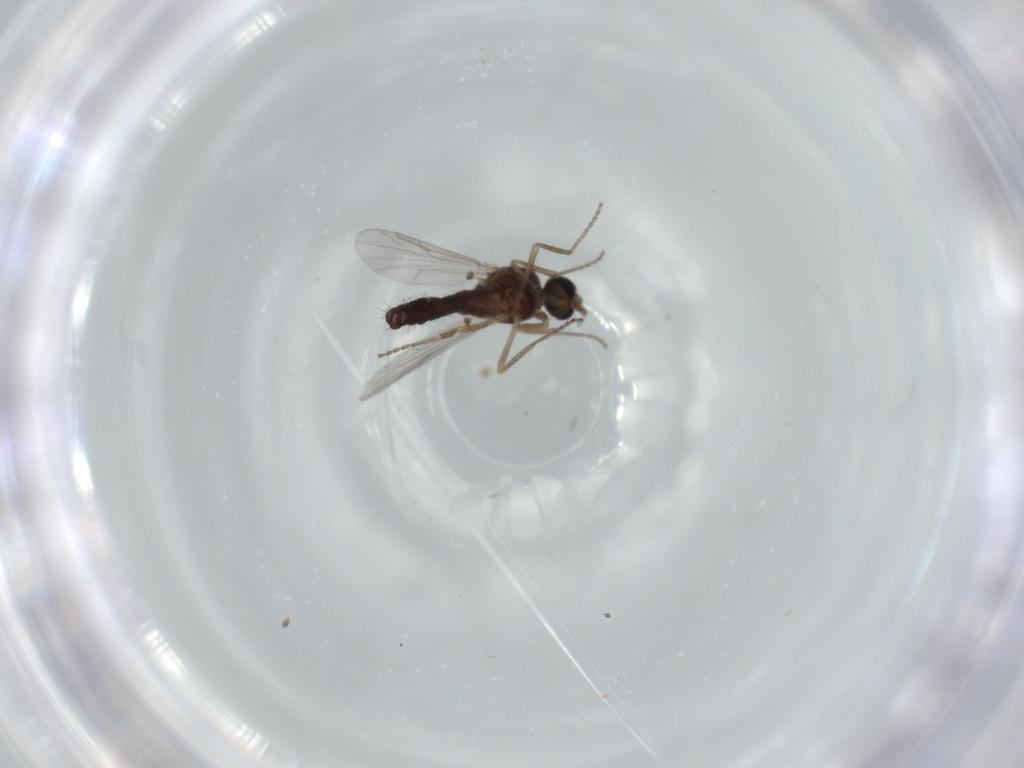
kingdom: Animalia
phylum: Arthropoda
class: Insecta
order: Diptera
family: Ceratopogonidae
